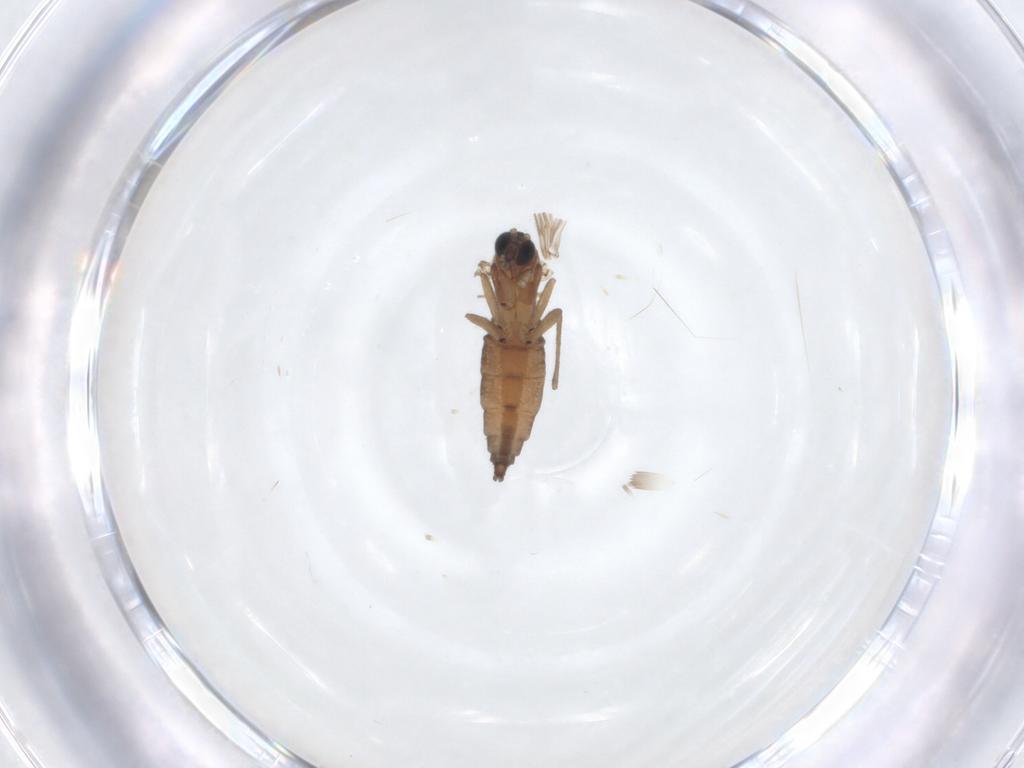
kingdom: Animalia
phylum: Arthropoda
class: Insecta
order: Diptera
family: Sciaridae
